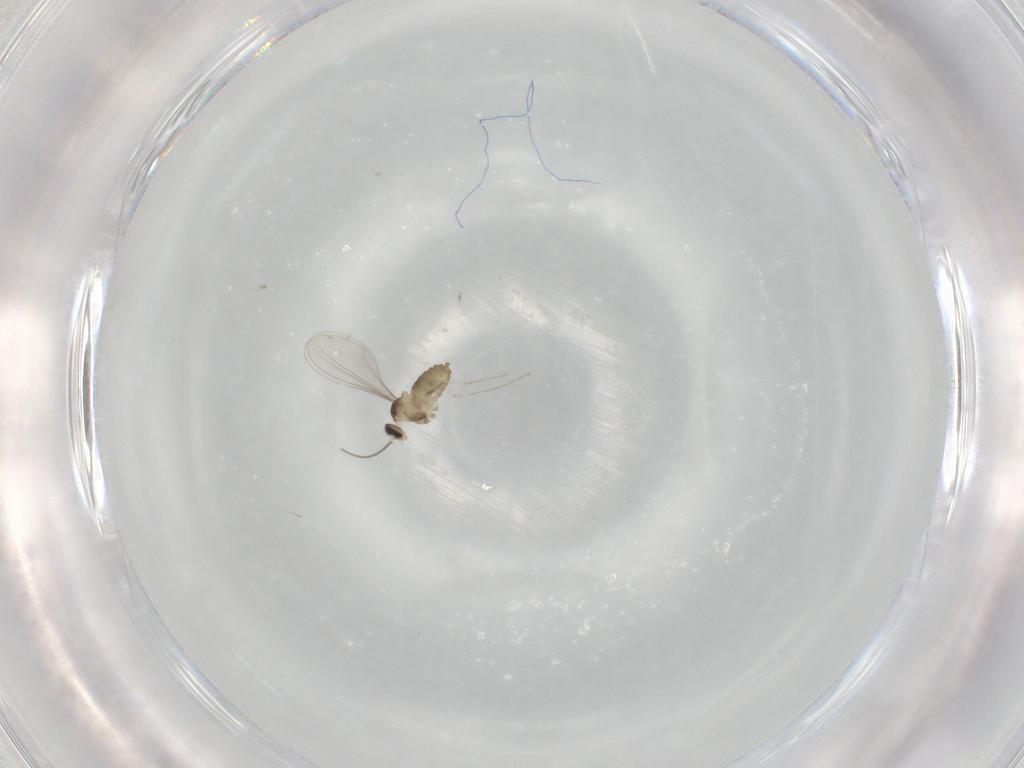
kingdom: Animalia
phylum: Arthropoda
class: Insecta
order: Diptera
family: Cecidomyiidae
